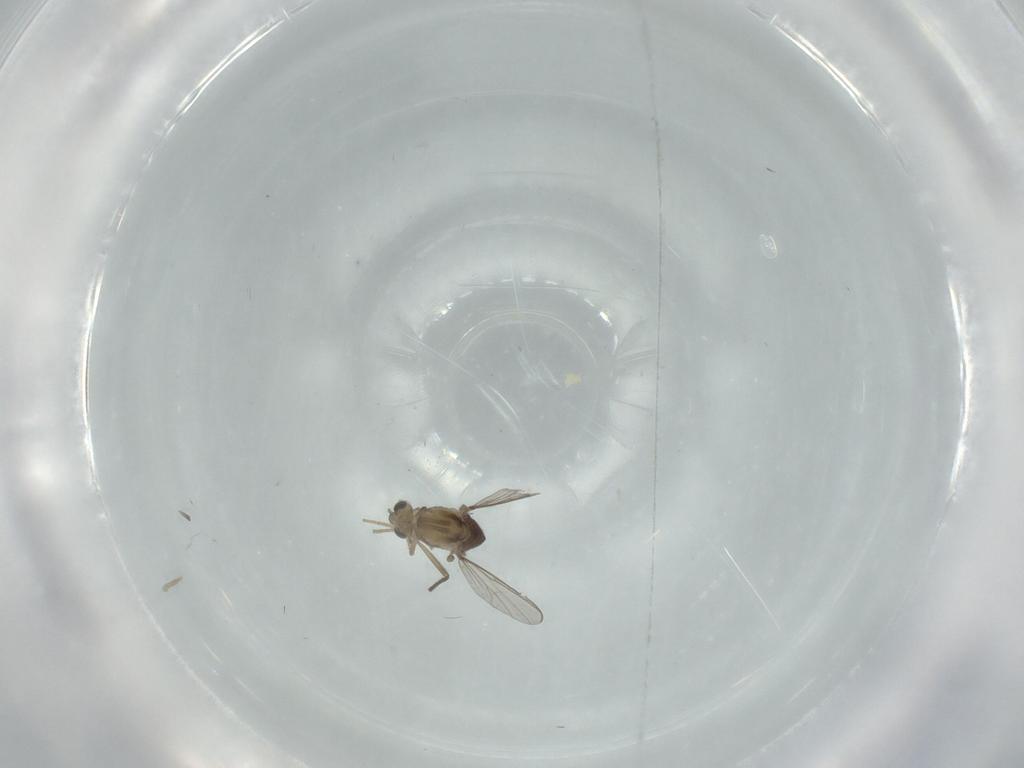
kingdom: Animalia
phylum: Arthropoda
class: Insecta
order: Diptera
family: Chironomidae
